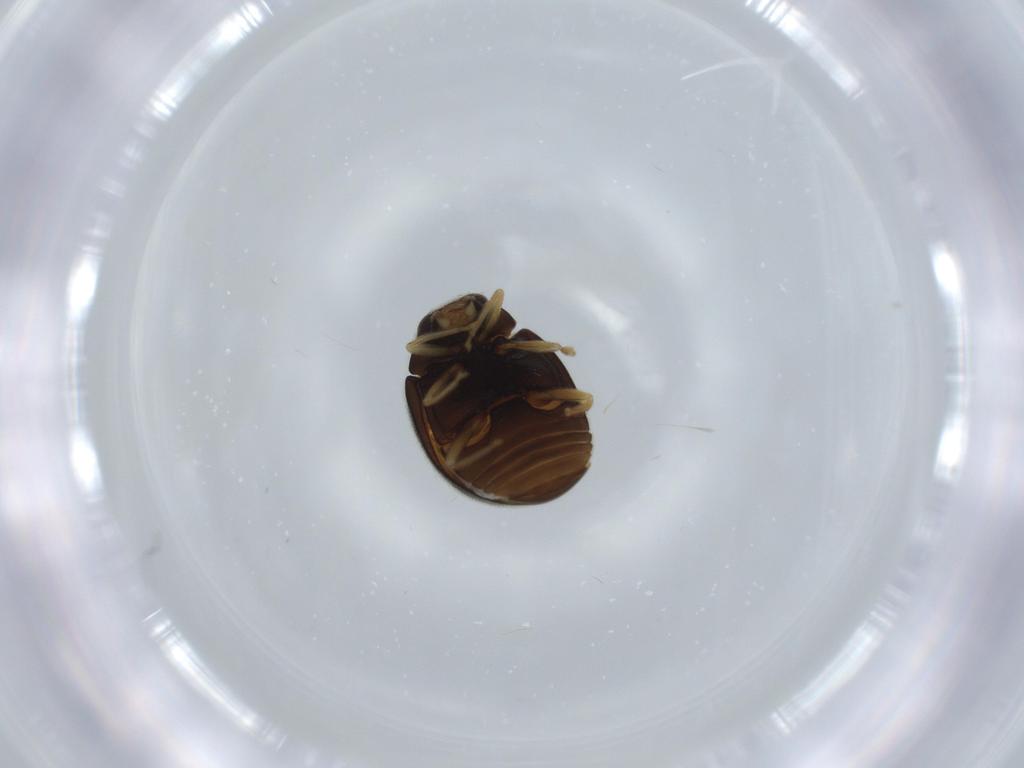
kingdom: Animalia
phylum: Arthropoda
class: Insecta
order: Coleoptera
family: Coccinellidae
